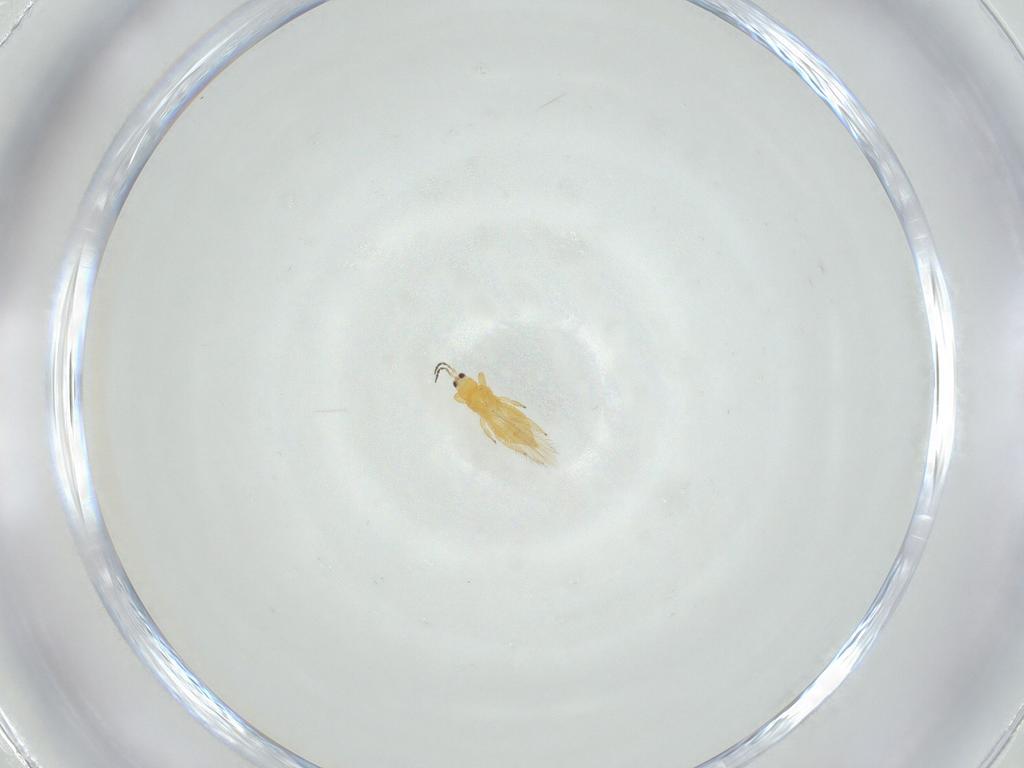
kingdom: Animalia
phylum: Arthropoda
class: Insecta
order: Thysanoptera
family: Melanthripidae
